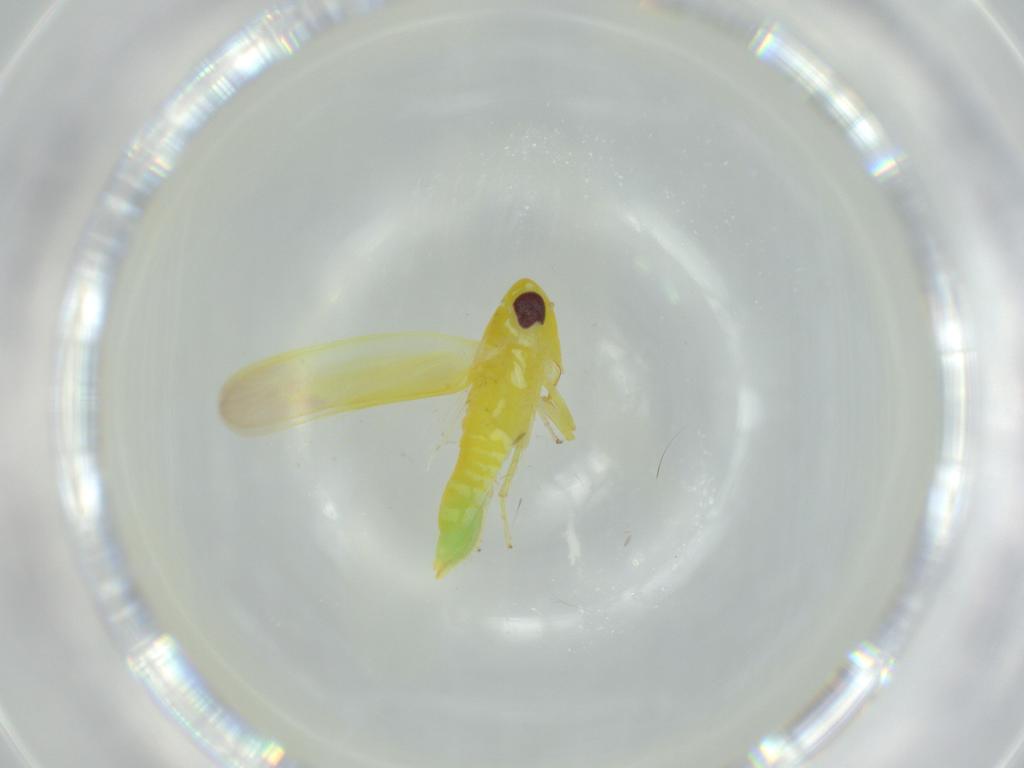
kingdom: Animalia
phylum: Arthropoda
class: Insecta
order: Hemiptera
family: Cicadellidae
